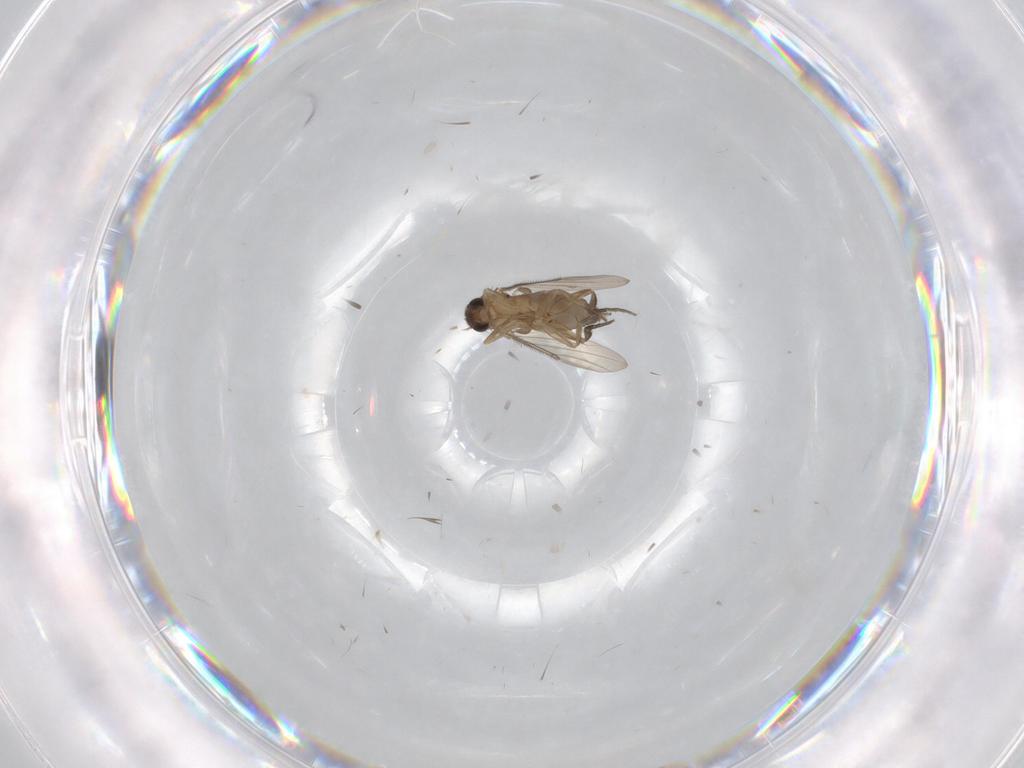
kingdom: Animalia
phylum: Arthropoda
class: Insecta
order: Diptera
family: Phoridae
